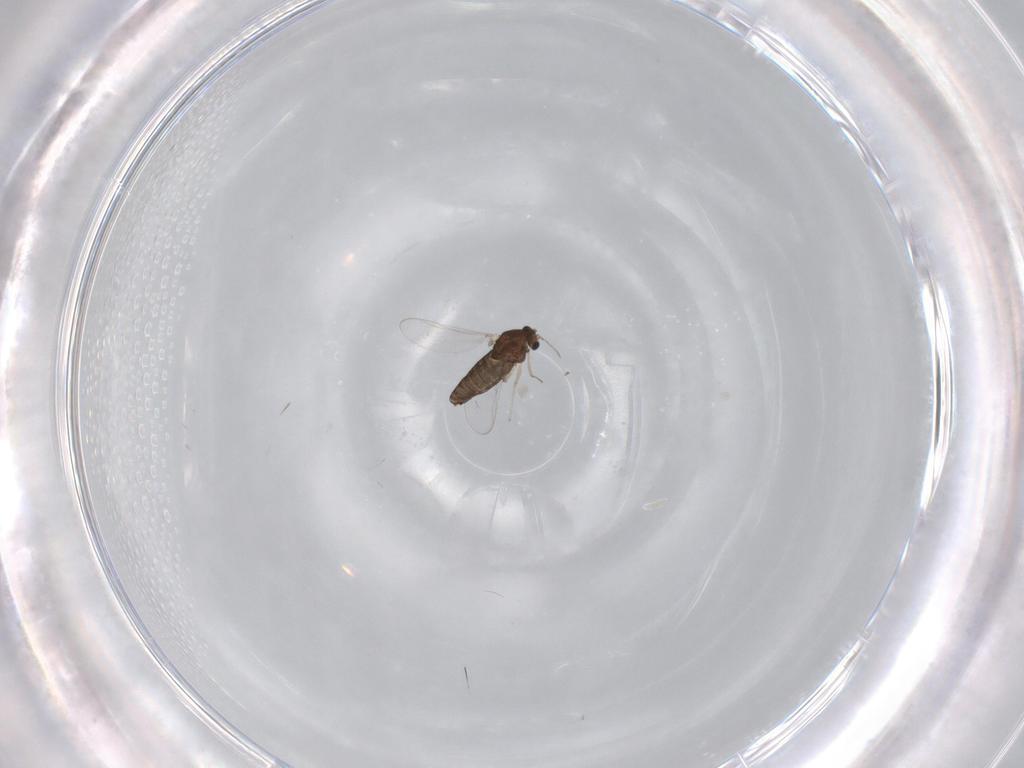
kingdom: Animalia
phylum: Arthropoda
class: Insecta
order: Diptera
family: Chironomidae
